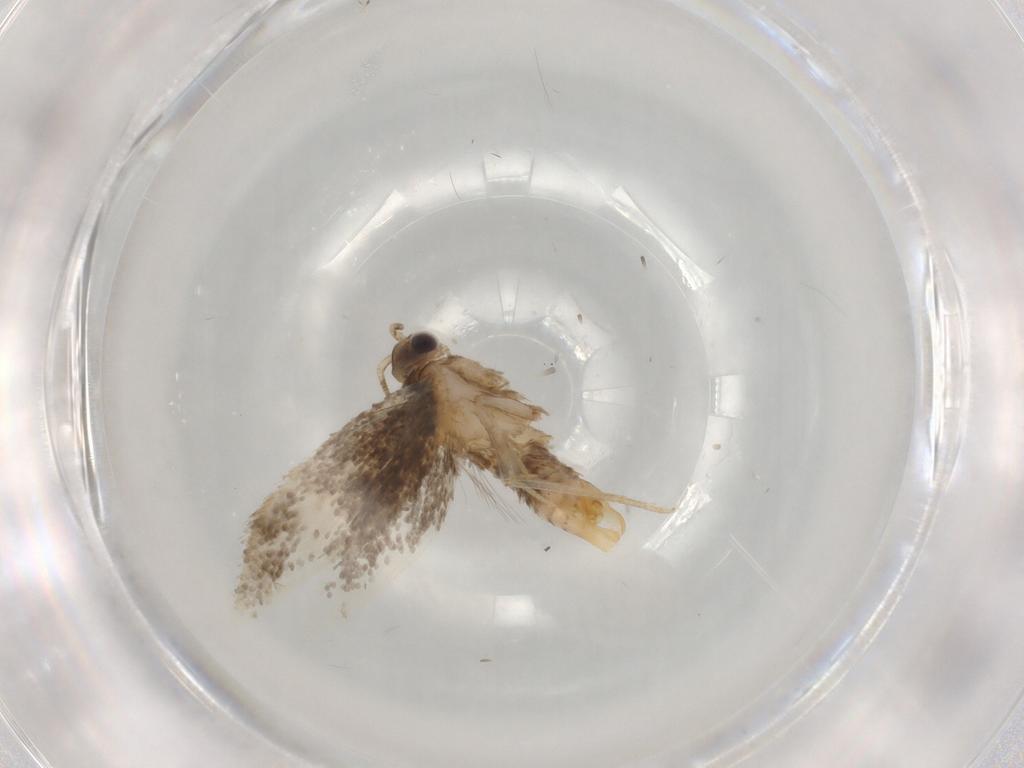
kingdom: Animalia
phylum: Arthropoda
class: Insecta
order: Lepidoptera
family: Tineidae
